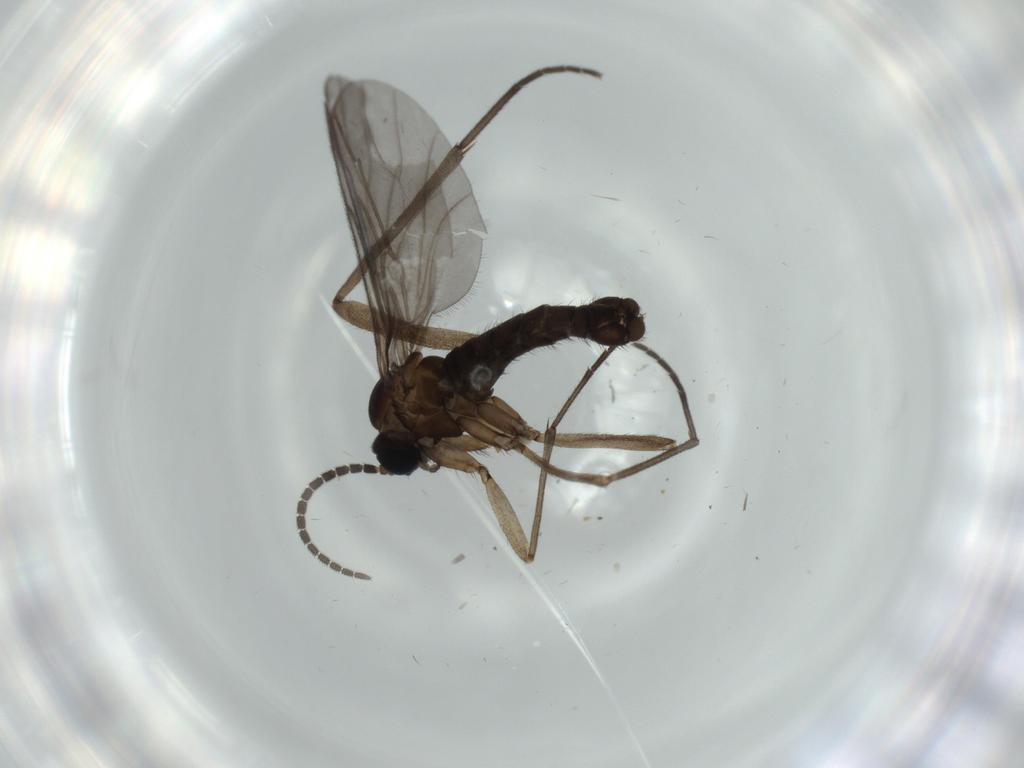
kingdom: Animalia
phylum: Arthropoda
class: Insecta
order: Diptera
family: Sciaridae
